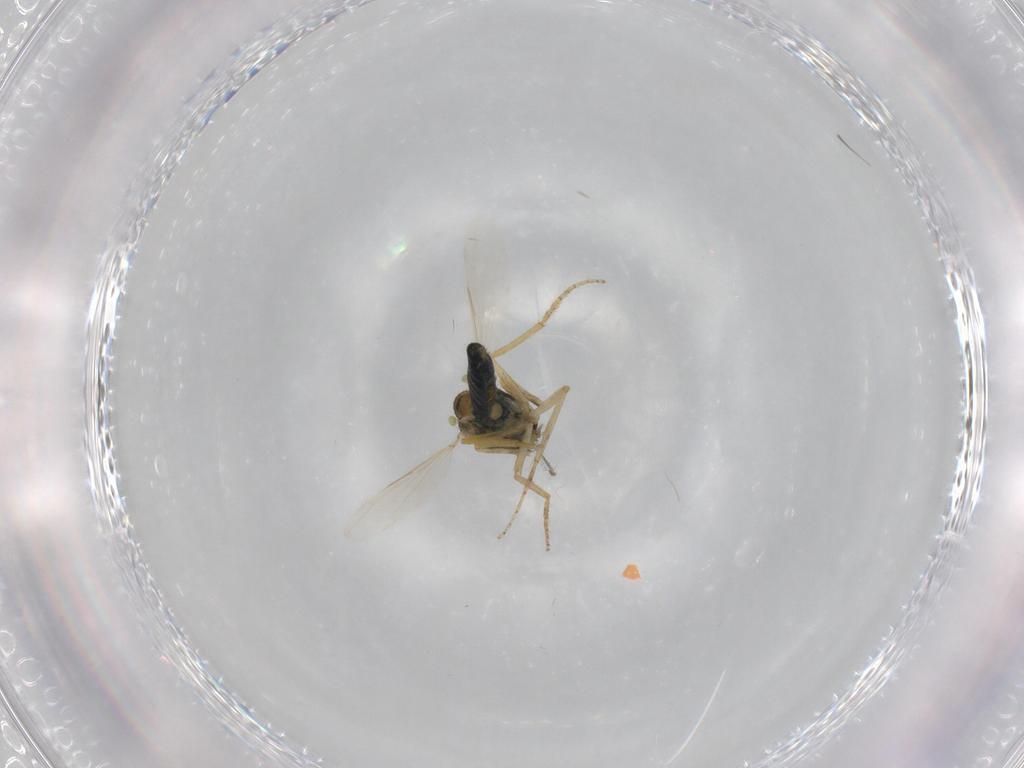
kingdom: Animalia
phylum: Arthropoda
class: Insecta
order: Diptera
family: Ceratopogonidae
